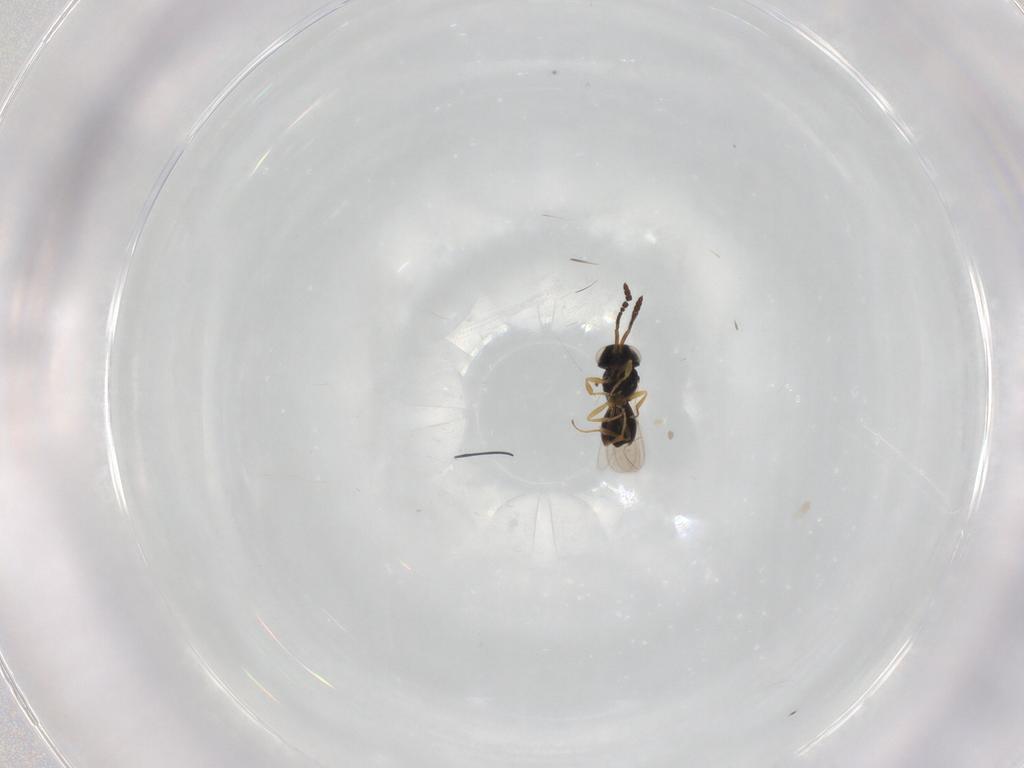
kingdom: Animalia
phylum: Arthropoda
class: Insecta
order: Hymenoptera
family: Scelionidae
